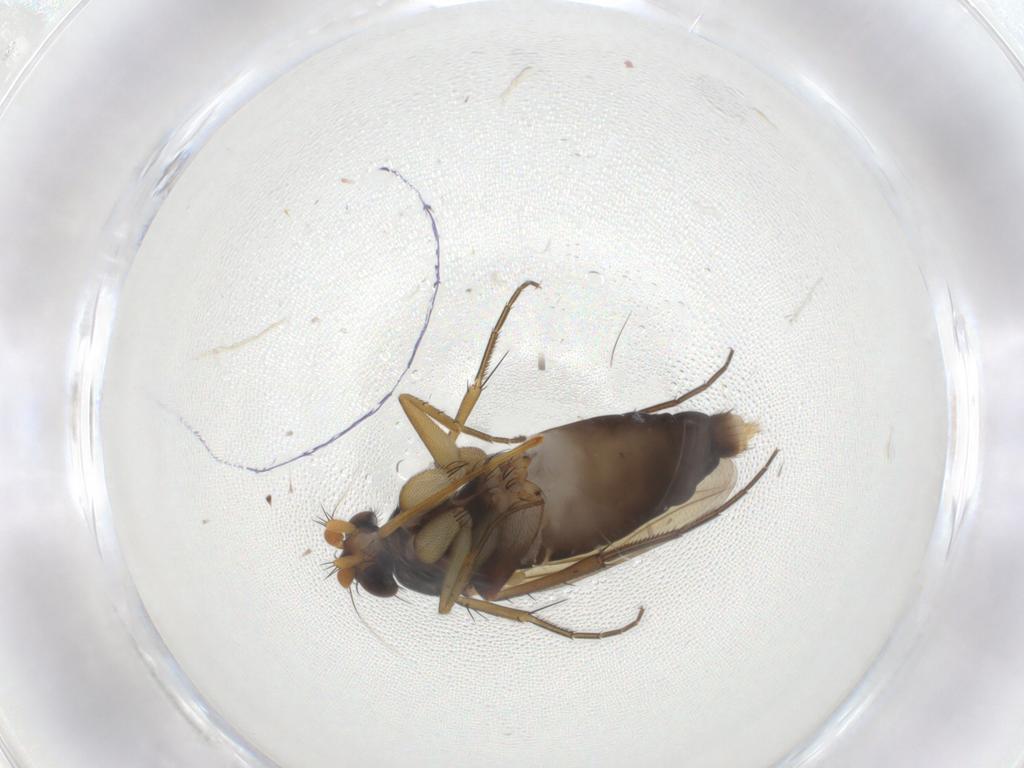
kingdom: Animalia
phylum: Arthropoda
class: Insecta
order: Diptera
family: Phoridae
